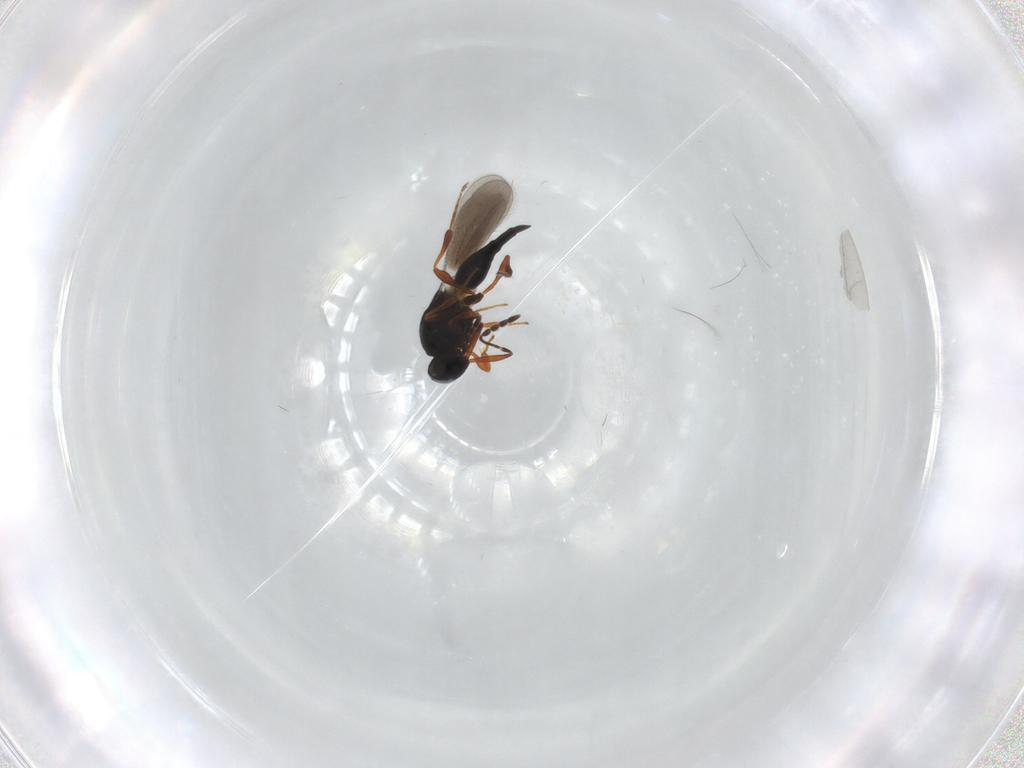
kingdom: Animalia
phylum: Arthropoda
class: Insecta
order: Hymenoptera
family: Platygastridae
